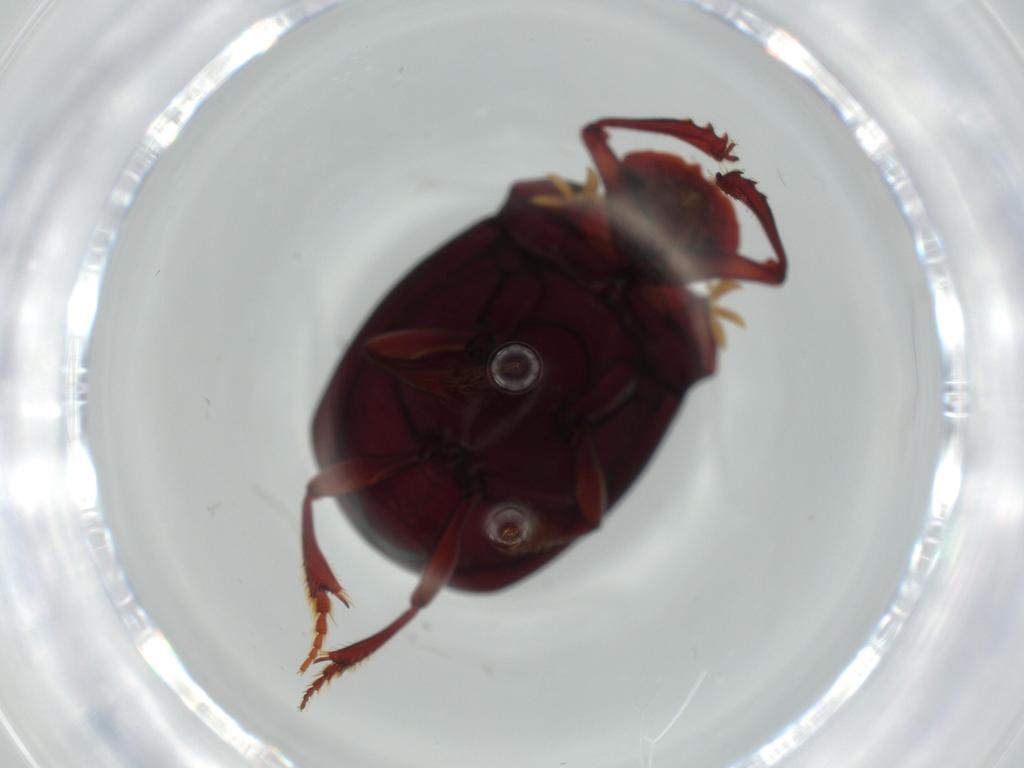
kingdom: Animalia
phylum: Arthropoda
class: Insecta
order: Coleoptera
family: Scarabaeidae
